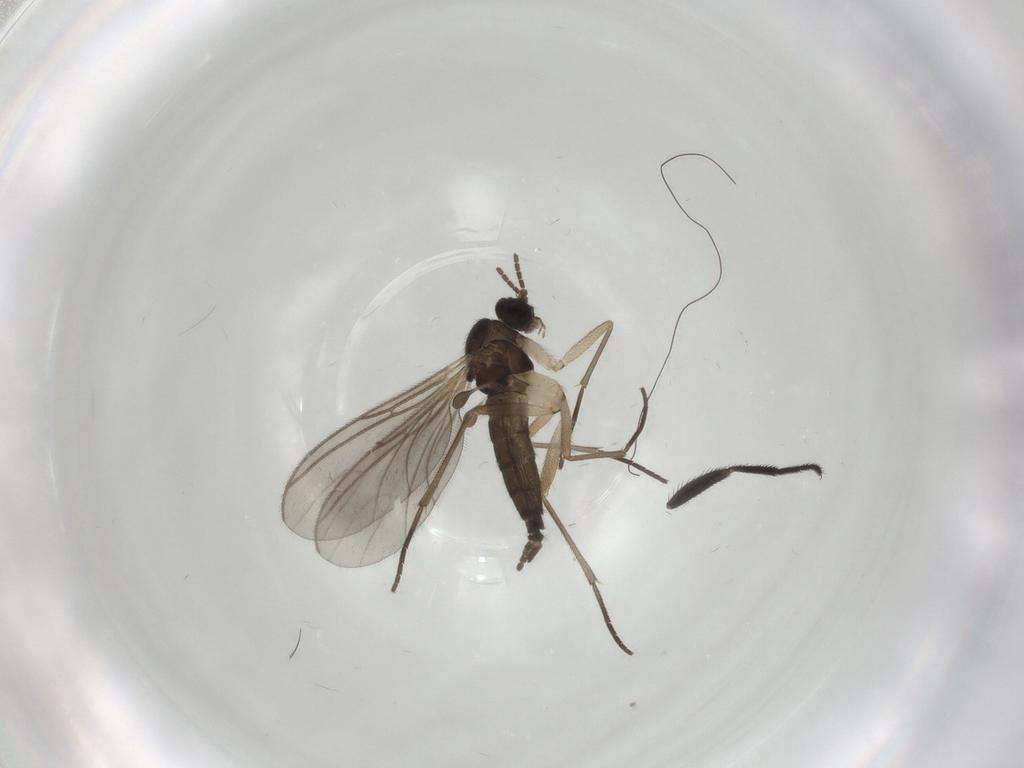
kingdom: Animalia
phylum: Arthropoda
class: Insecta
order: Diptera
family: Milichiidae
